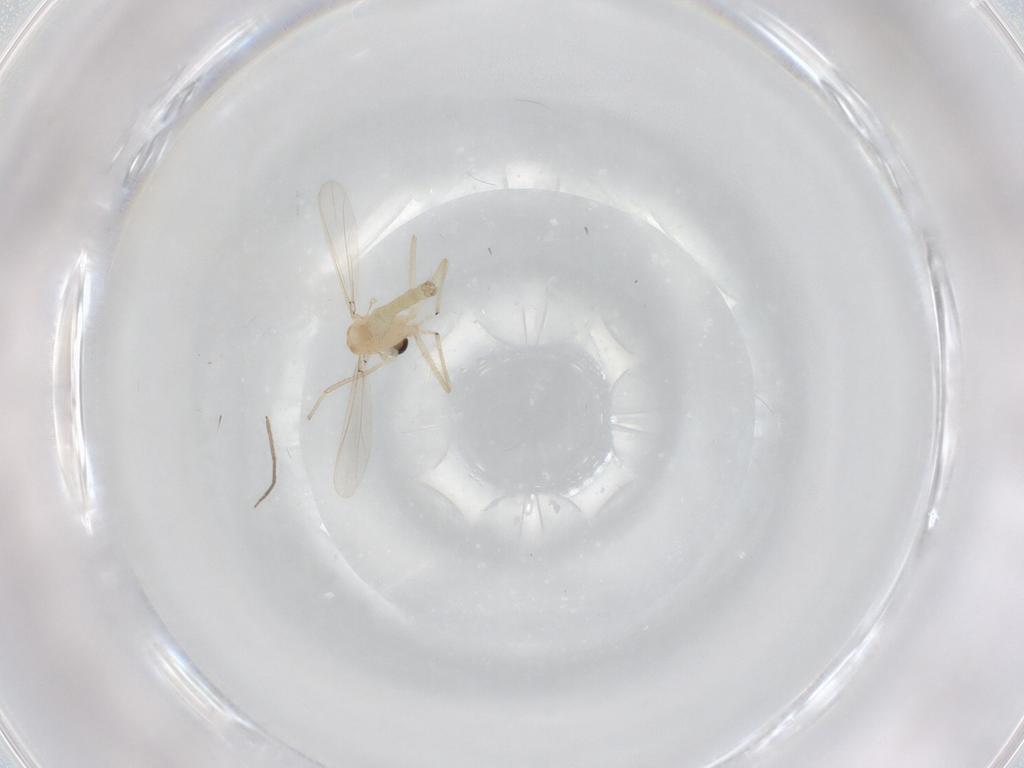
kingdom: Animalia
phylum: Arthropoda
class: Insecta
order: Diptera
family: Chironomidae
